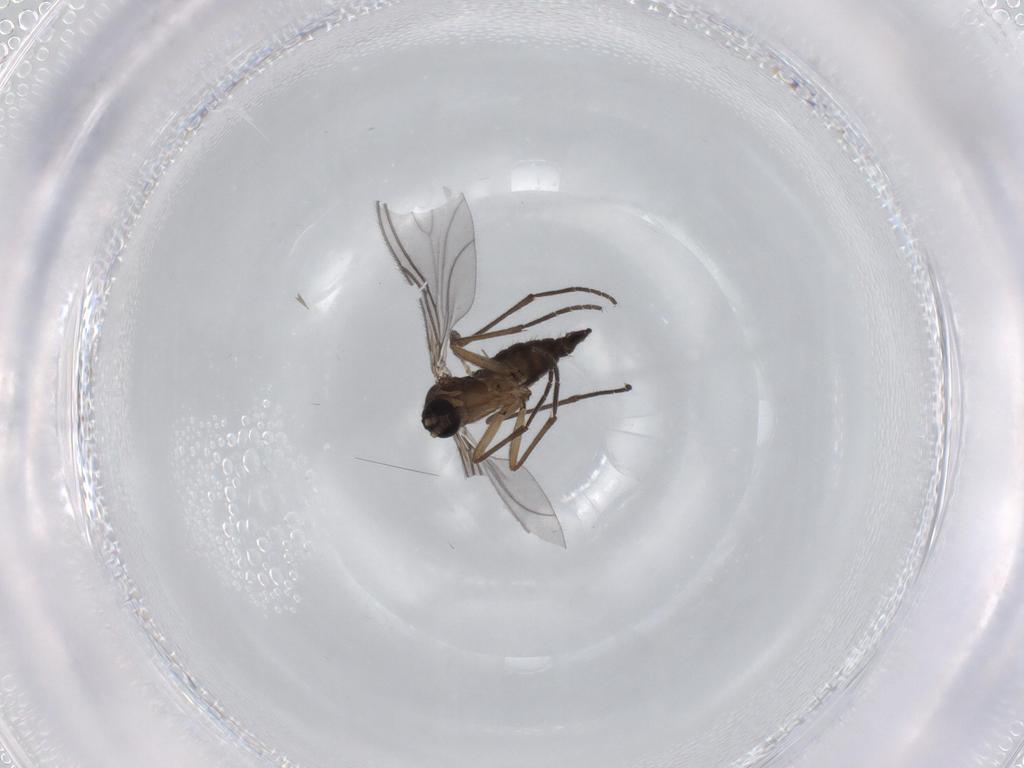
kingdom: Animalia
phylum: Arthropoda
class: Insecta
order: Diptera
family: Sciaridae
